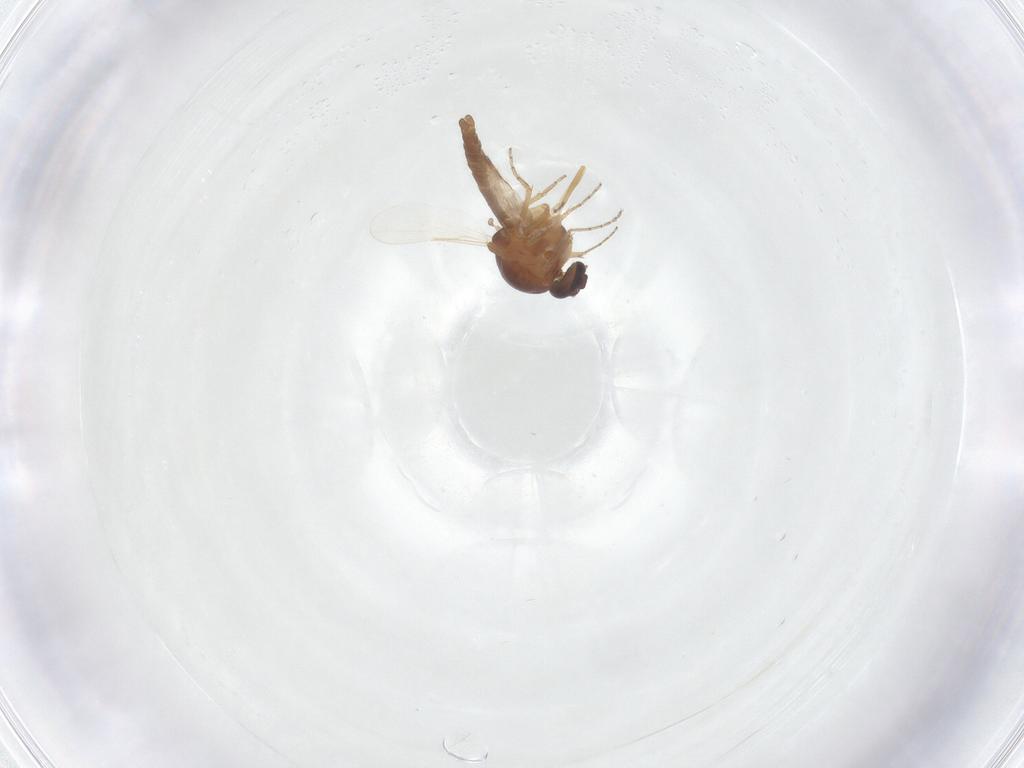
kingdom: Animalia
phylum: Arthropoda
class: Insecta
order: Diptera
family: Ceratopogonidae
